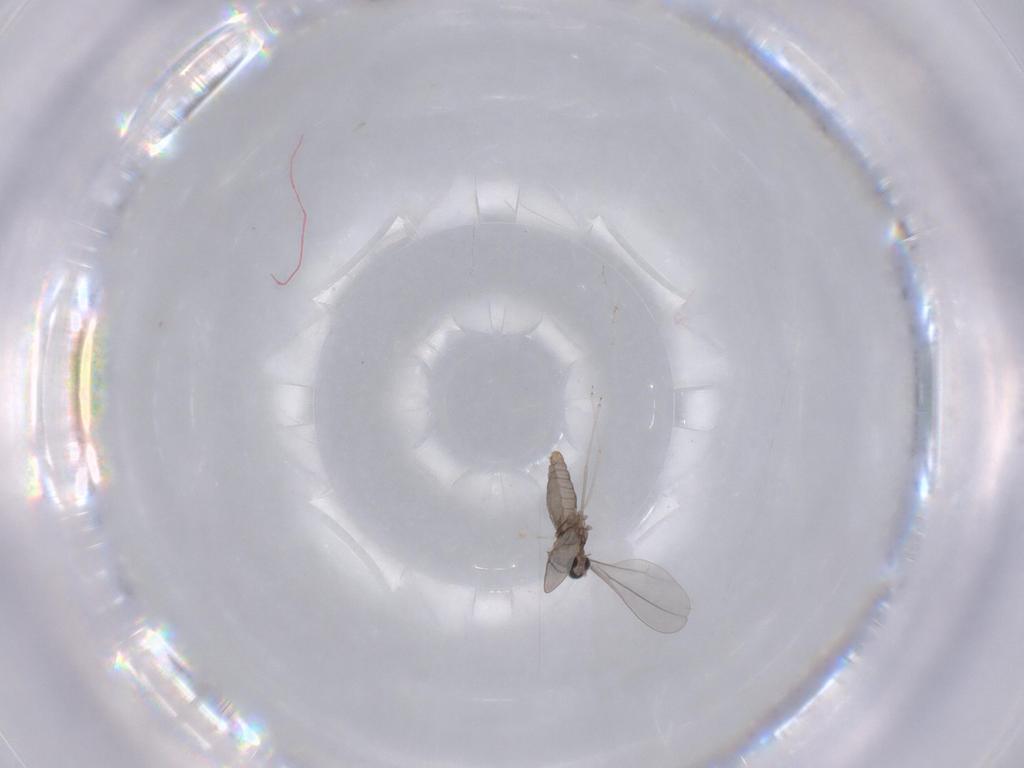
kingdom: Animalia
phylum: Arthropoda
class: Insecta
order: Diptera
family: Cecidomyiidae
